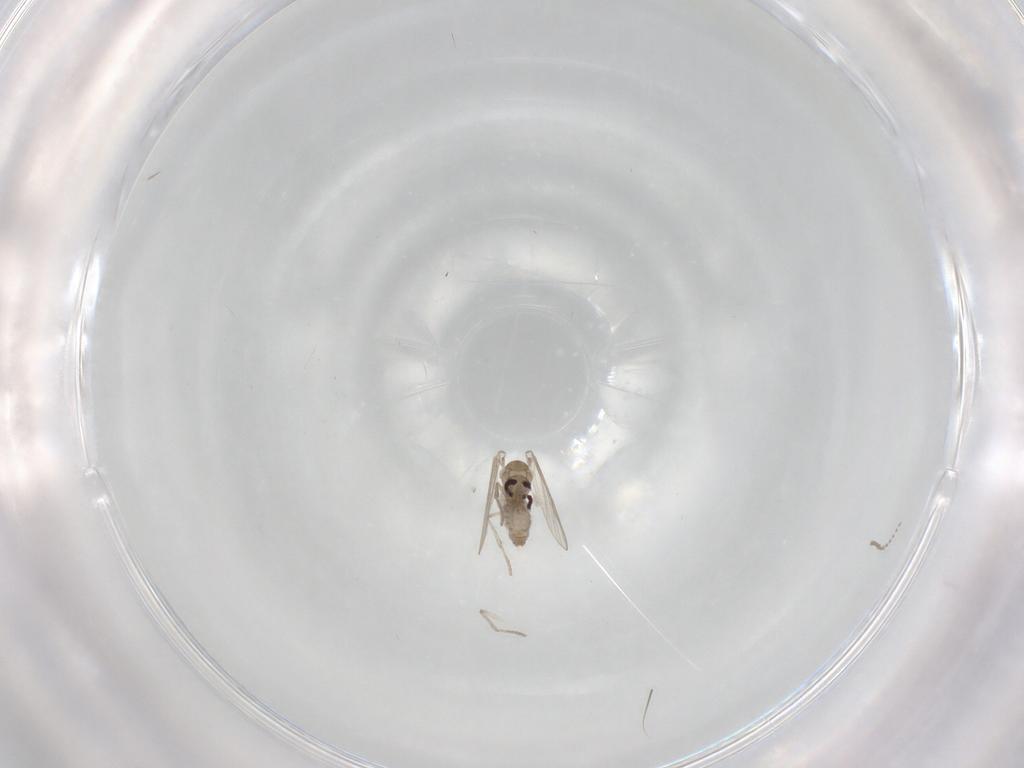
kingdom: Animalia
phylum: Arthropoda
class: Insecta
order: Diptera
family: Psychodidae
